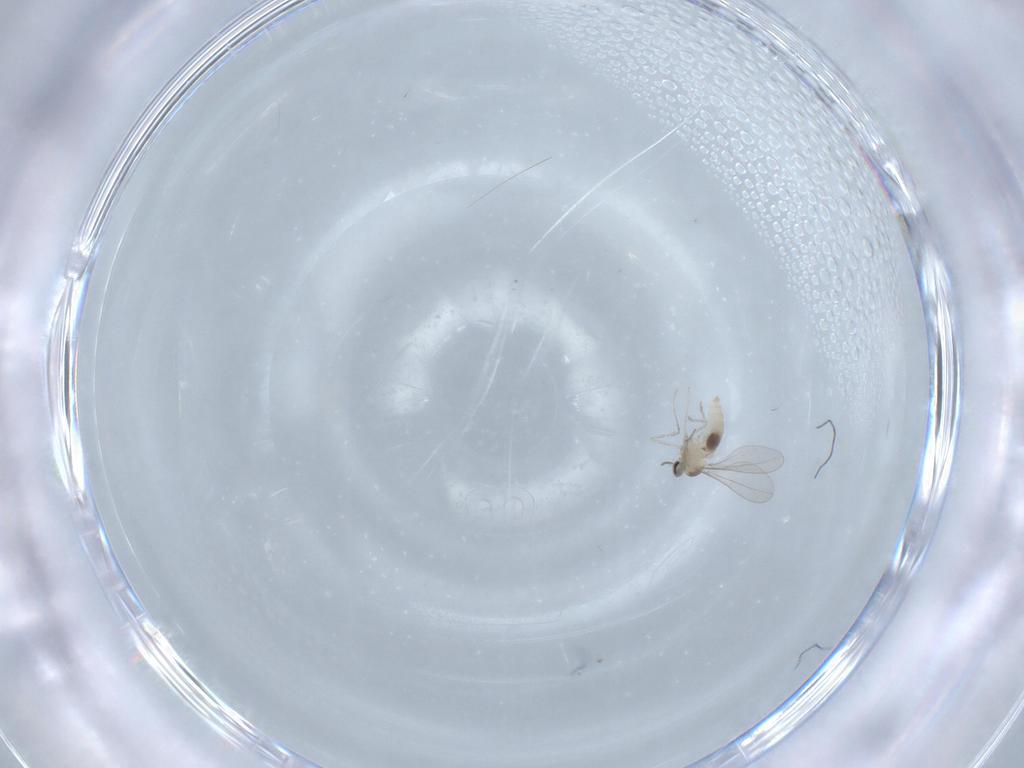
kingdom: Animalia
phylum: Arthropoda
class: Insecta
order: Diptera
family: Cecidomyiidae
